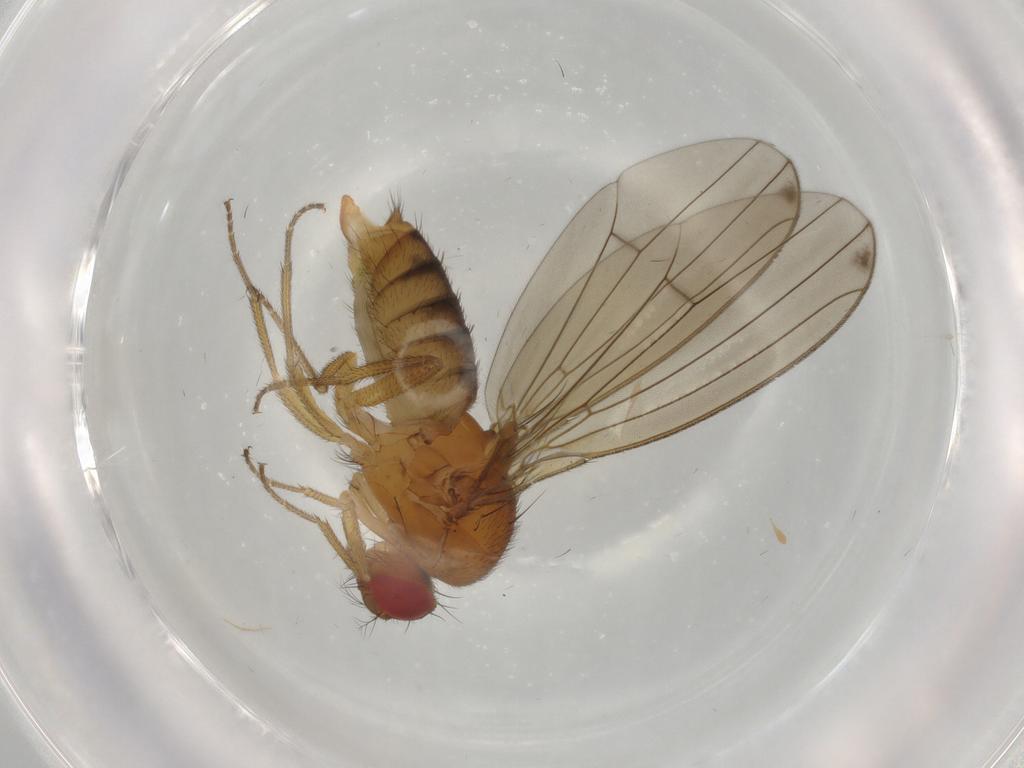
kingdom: Animalia
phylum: Arthropoda
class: Insecta
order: Diptera
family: Drosophilidae
